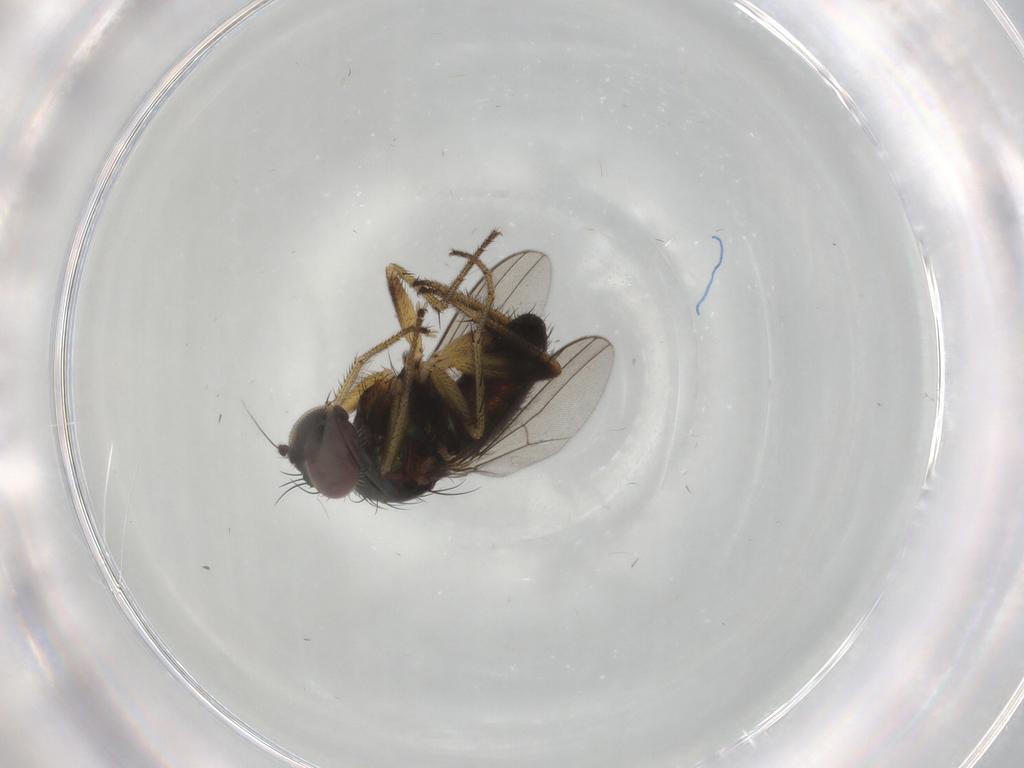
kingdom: Animalia
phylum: Arthropoda
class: Insecta
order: Diptera
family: Dolichopodidae
